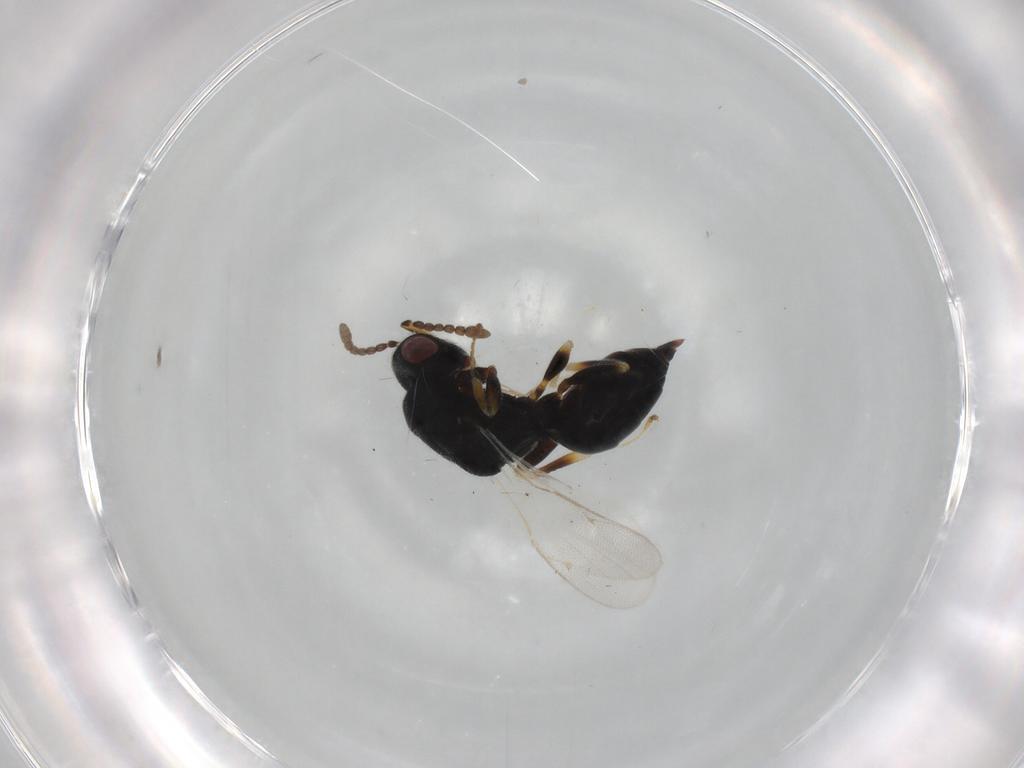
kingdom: Animalia
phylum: Arthropoda
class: Insecta
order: Hymenoptera
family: Eurytomidae
